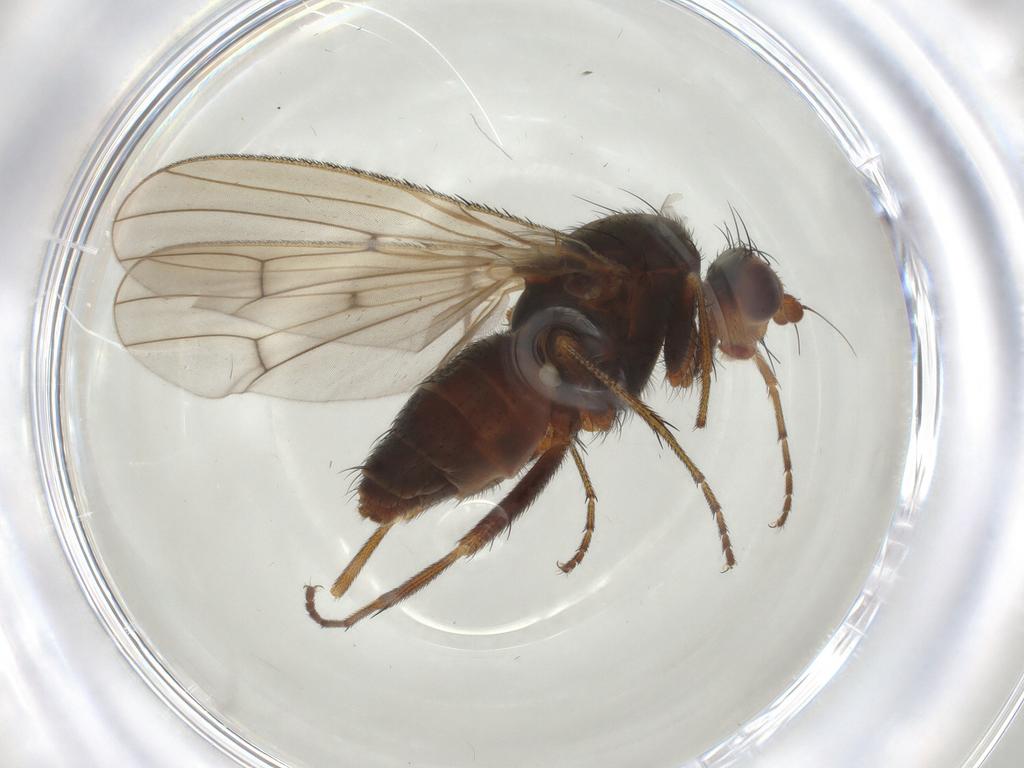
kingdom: Animalia
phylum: Arthropoda
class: Insecta
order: Diptera
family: Heleomyzidae
